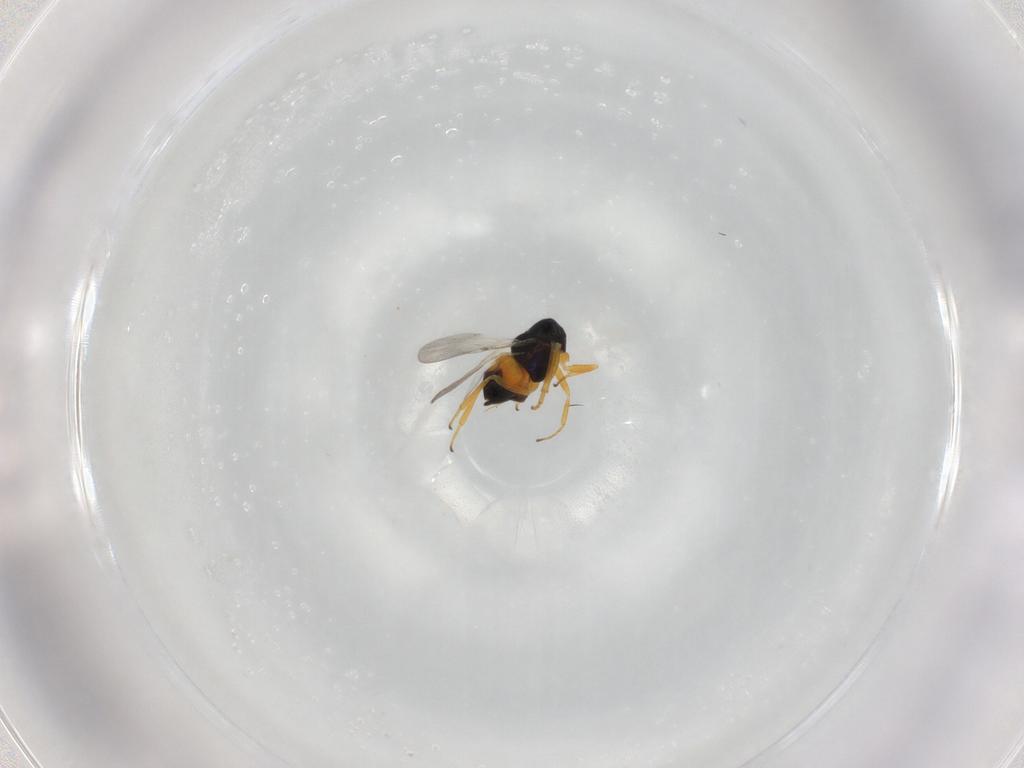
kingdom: Animalia
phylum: Arthropoda
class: Insecta
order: Hymenoptera
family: Encyrtidae
